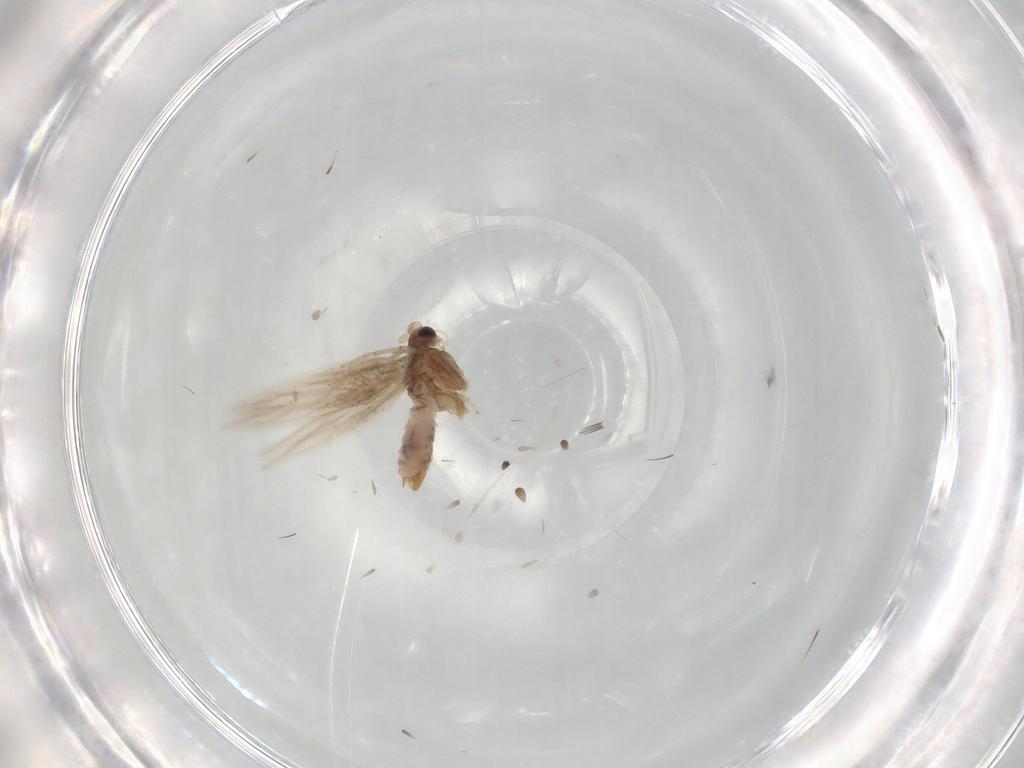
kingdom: Animalia
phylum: Arthropoda
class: Insecta
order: Lepidoptera
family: Nepticulidae
